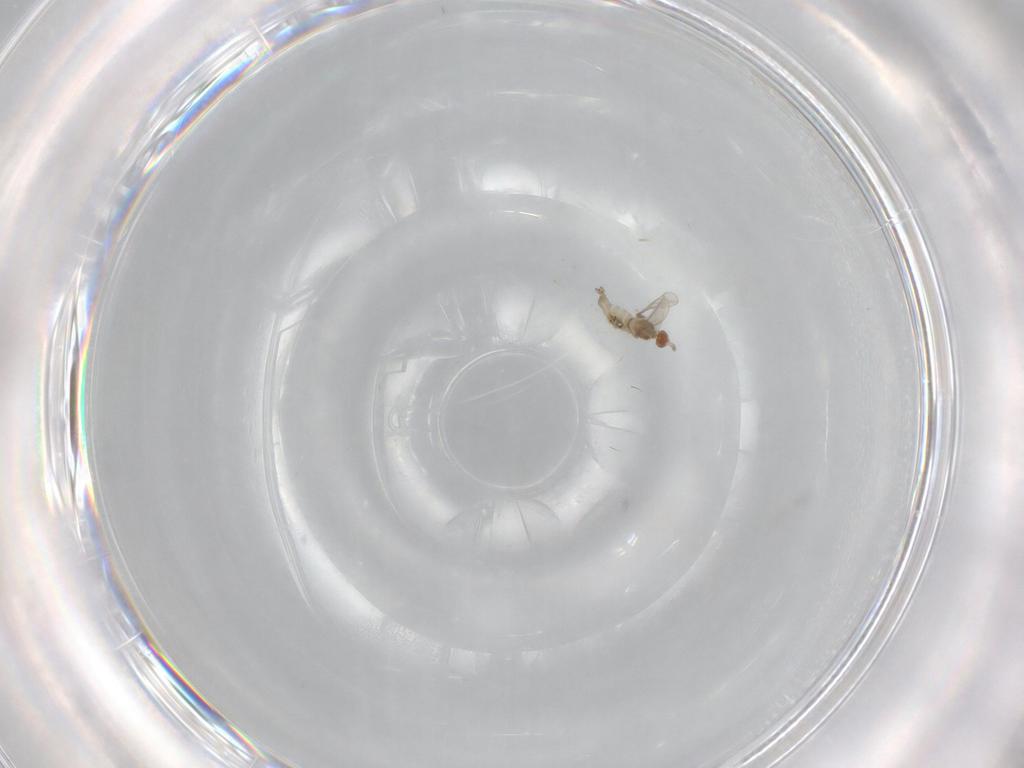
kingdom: Animalia
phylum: Arthropoda
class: Insecta
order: Diptera
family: Cecidomyiidae
